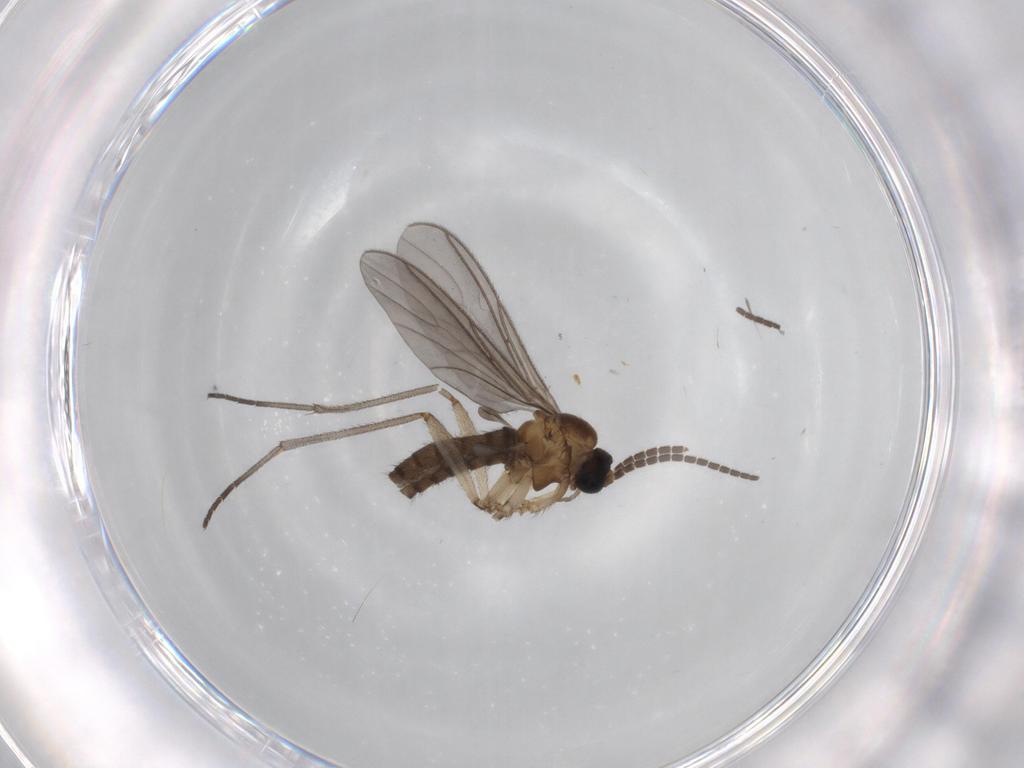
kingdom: Animalia
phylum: Arthropoda
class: Insecta
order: Diptera
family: Sciaridae
